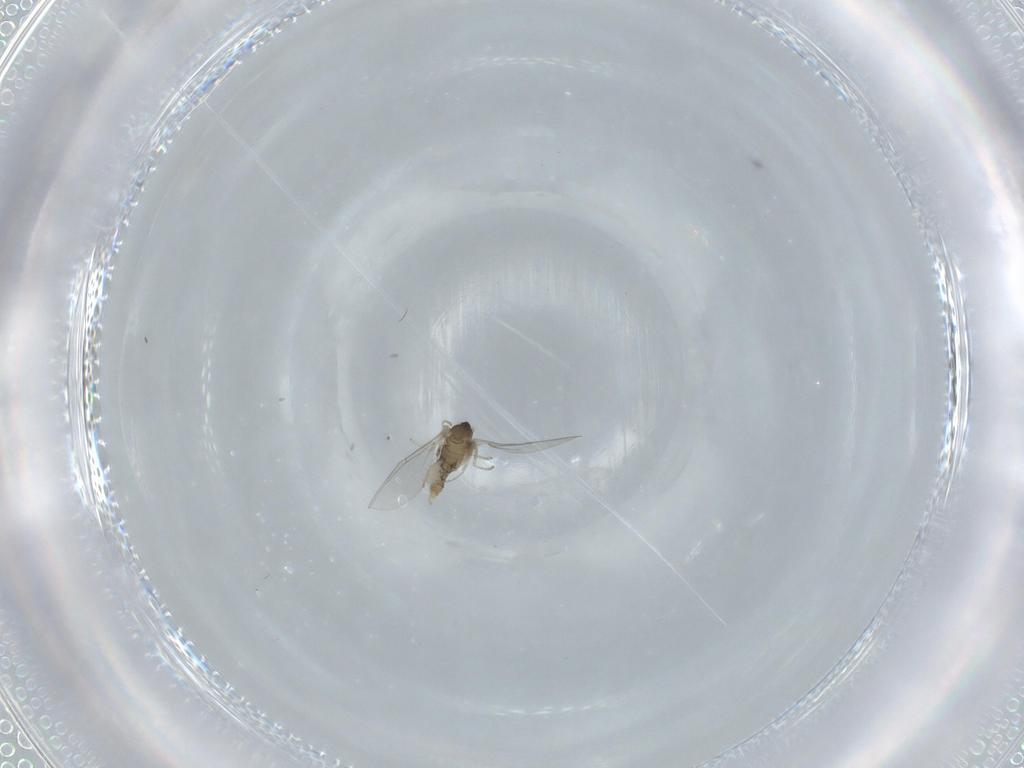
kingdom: Animalia
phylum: Arthropoda
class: Insecta
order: Diptera
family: Cecidomyiidae
